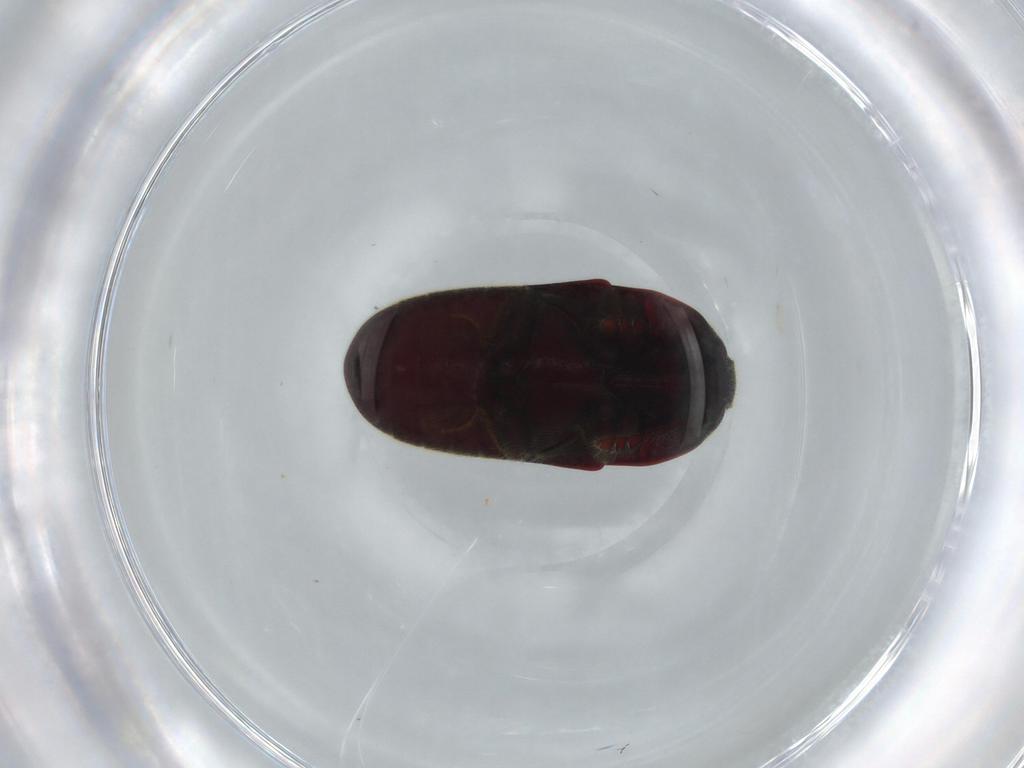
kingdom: Animalia
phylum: Arthropoda
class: Insecta
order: Coleoptera
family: Throscidae
